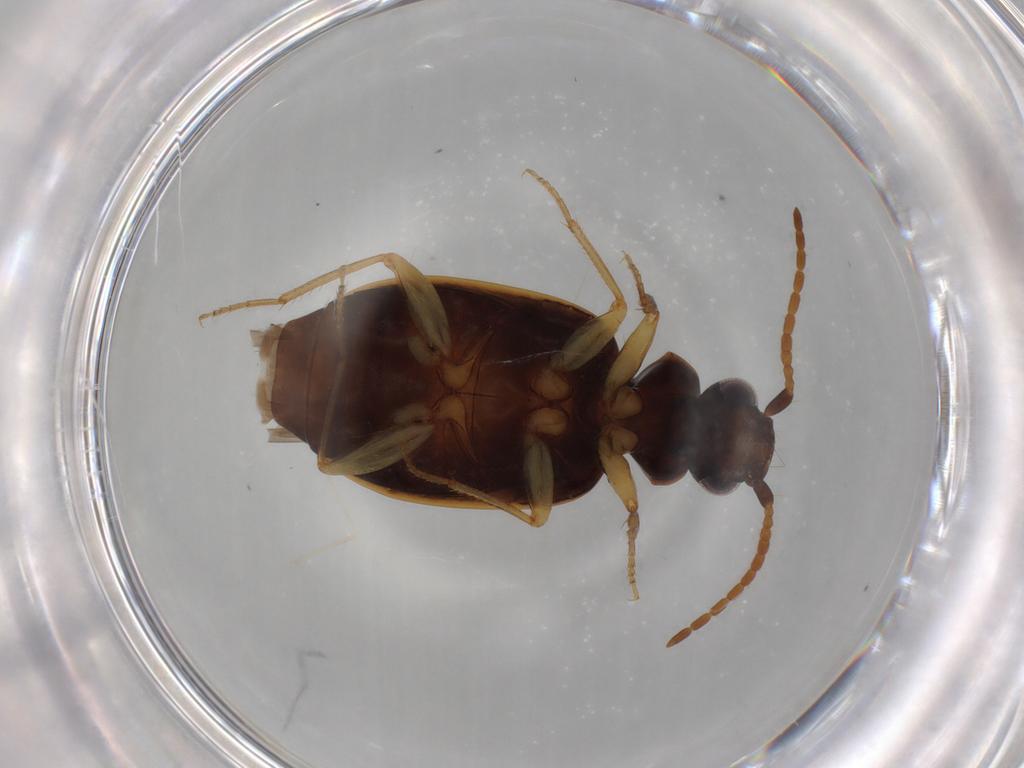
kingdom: Animalia
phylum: Arthropoda
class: Insecta
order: Coleoptera
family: Carabidae
